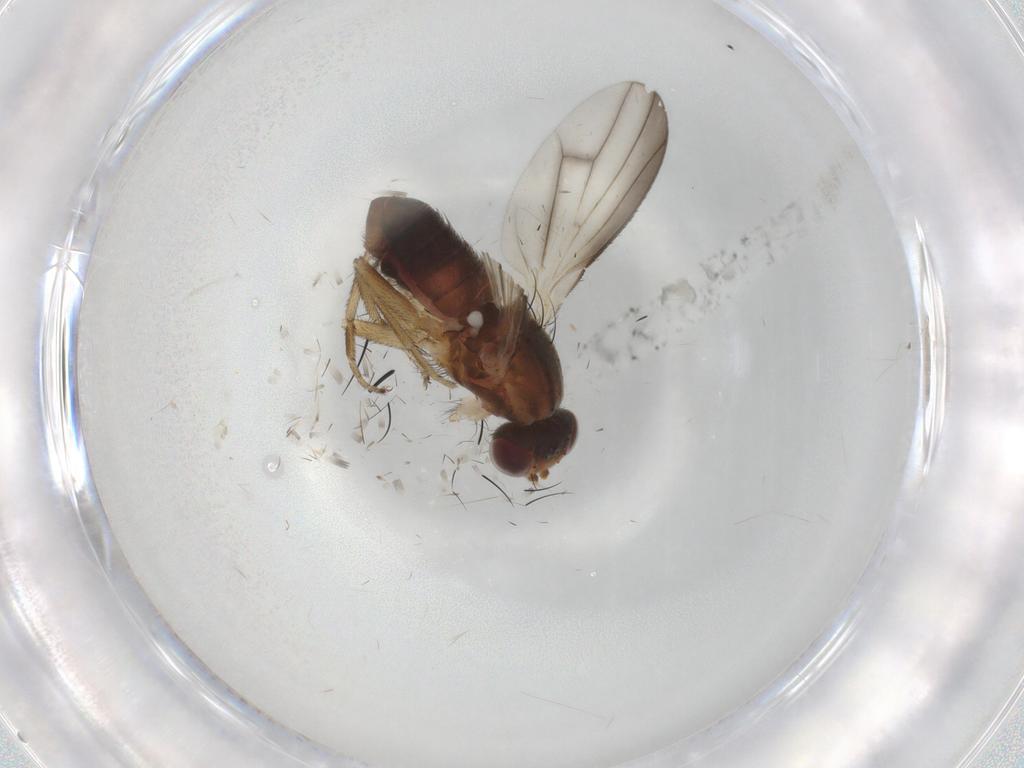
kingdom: Animalia
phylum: Arthropoda
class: Insecta
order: Diptera
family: Heleomyzidae
